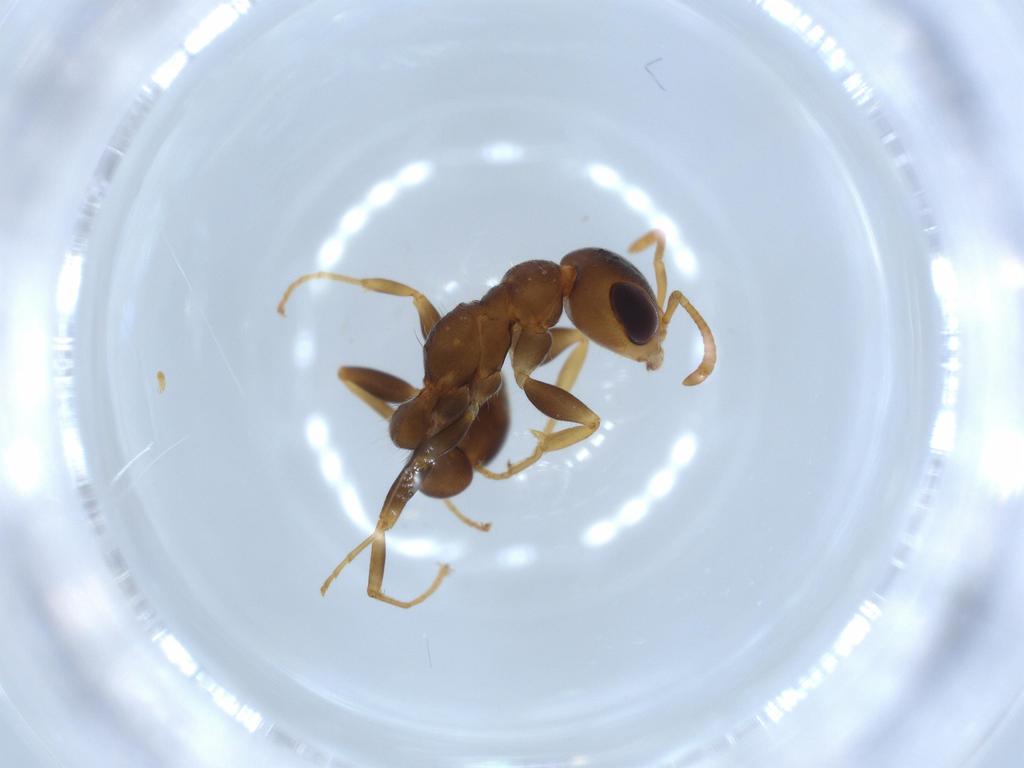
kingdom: Animalia
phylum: Arthropoda
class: Insecta
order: Hymenoptera
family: Formicidae
